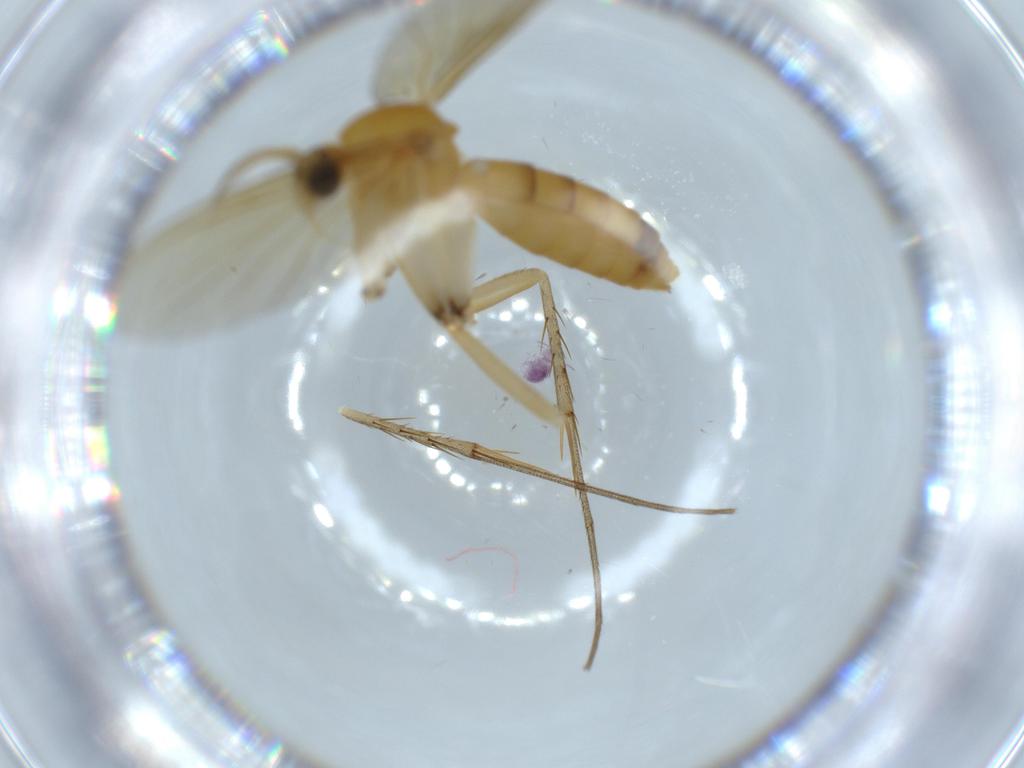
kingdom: Animalia
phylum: Arthropoda
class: Insecta
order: Diptera
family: Mycetophilidae
